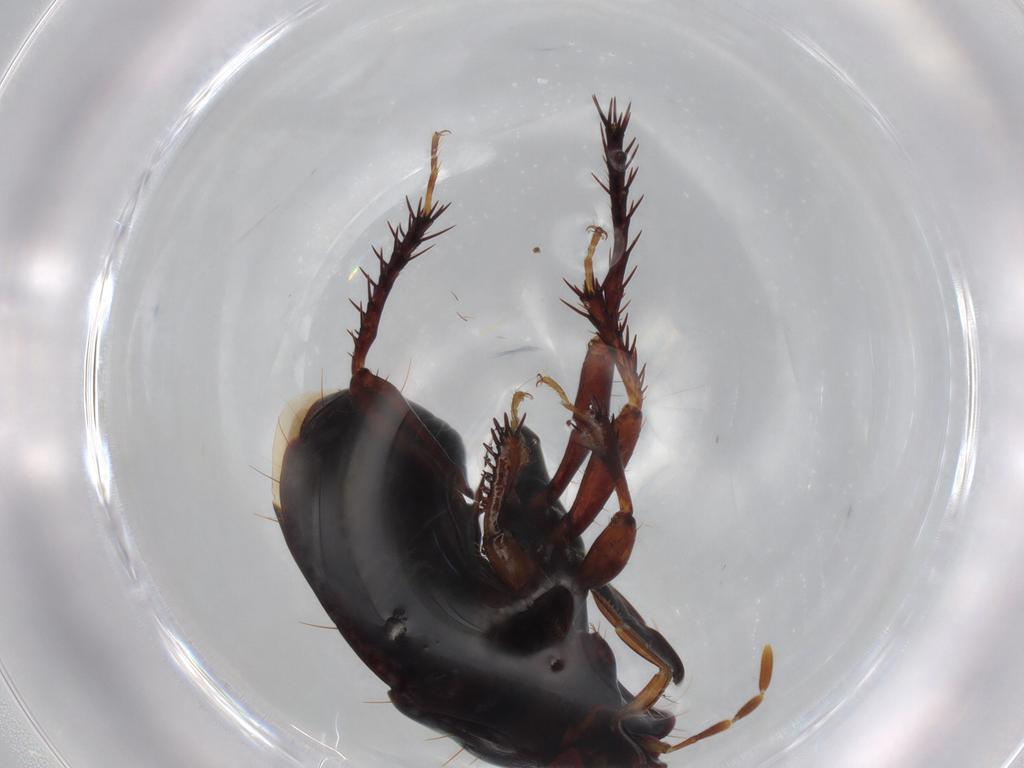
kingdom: Animalia
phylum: Arthropoda
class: Insecta
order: Hemiptera
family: Cydnidae
